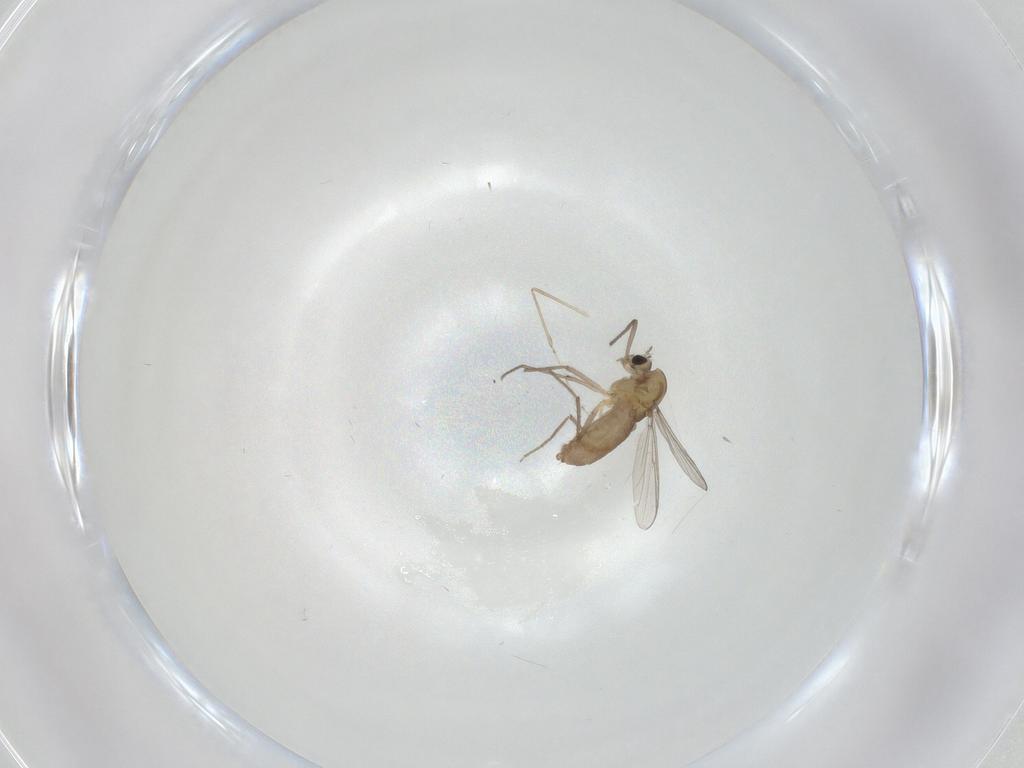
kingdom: Animalia
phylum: Arthropoda
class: Insecta
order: Diptera
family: Chironomidae
